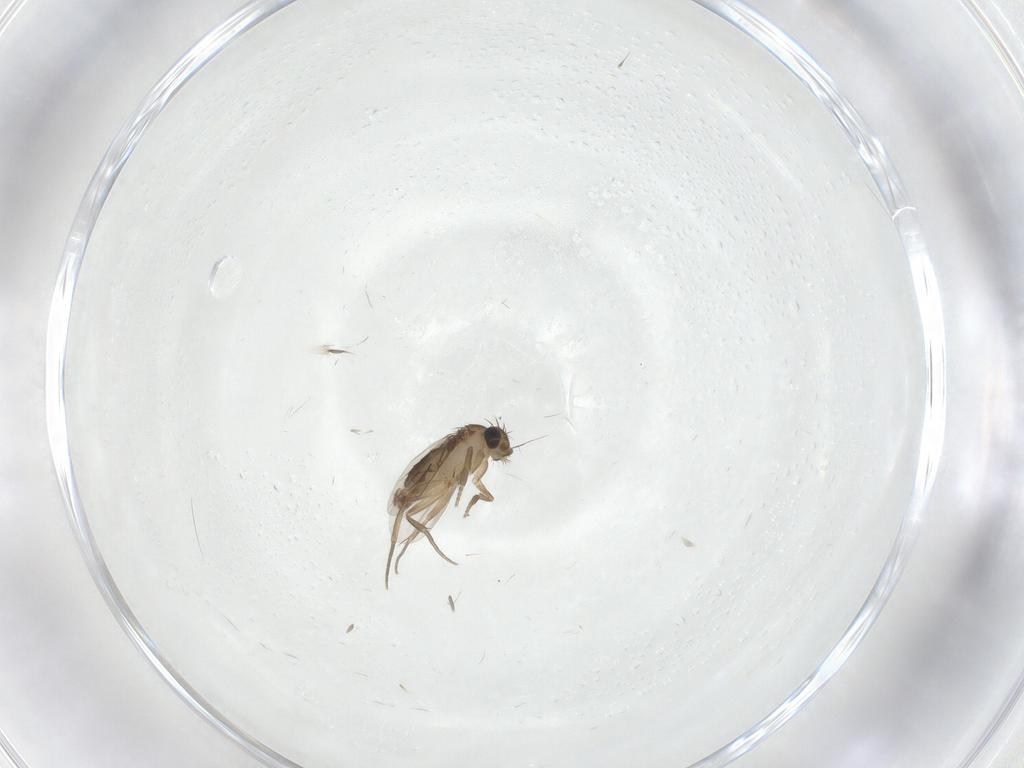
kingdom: Animalia
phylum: Arthropoda
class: Insecta
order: Diptera
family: Phoridae
